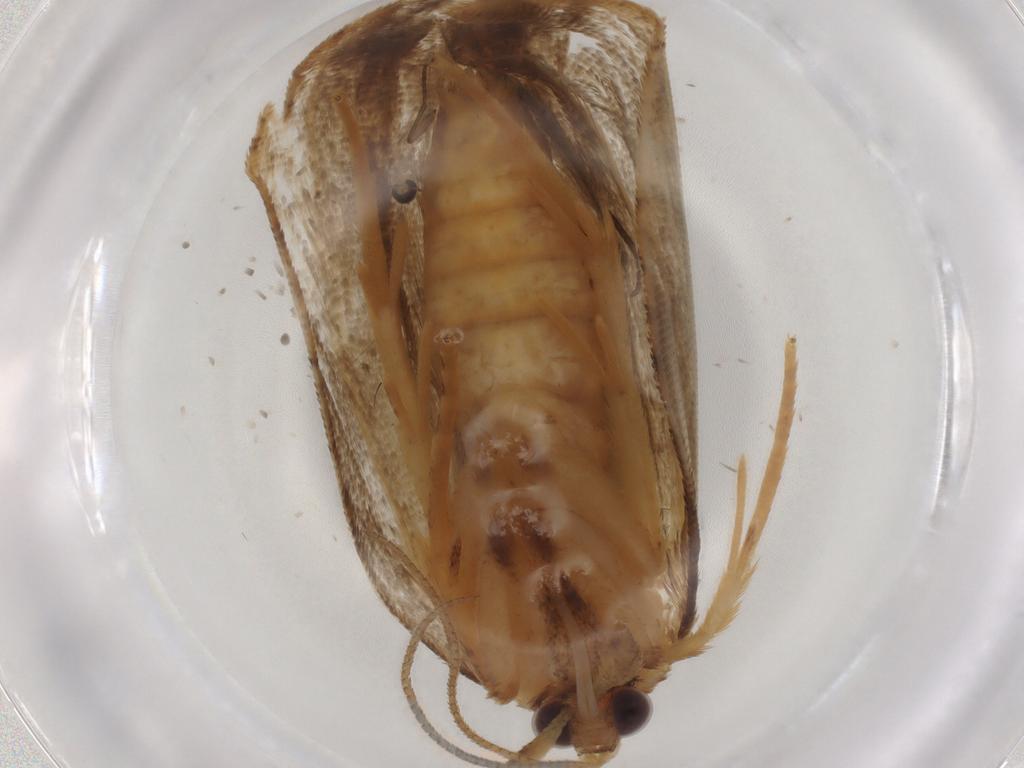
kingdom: Animalia
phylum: Arthropoda
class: Insecta
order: Lepidoptera
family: Tortricidae
